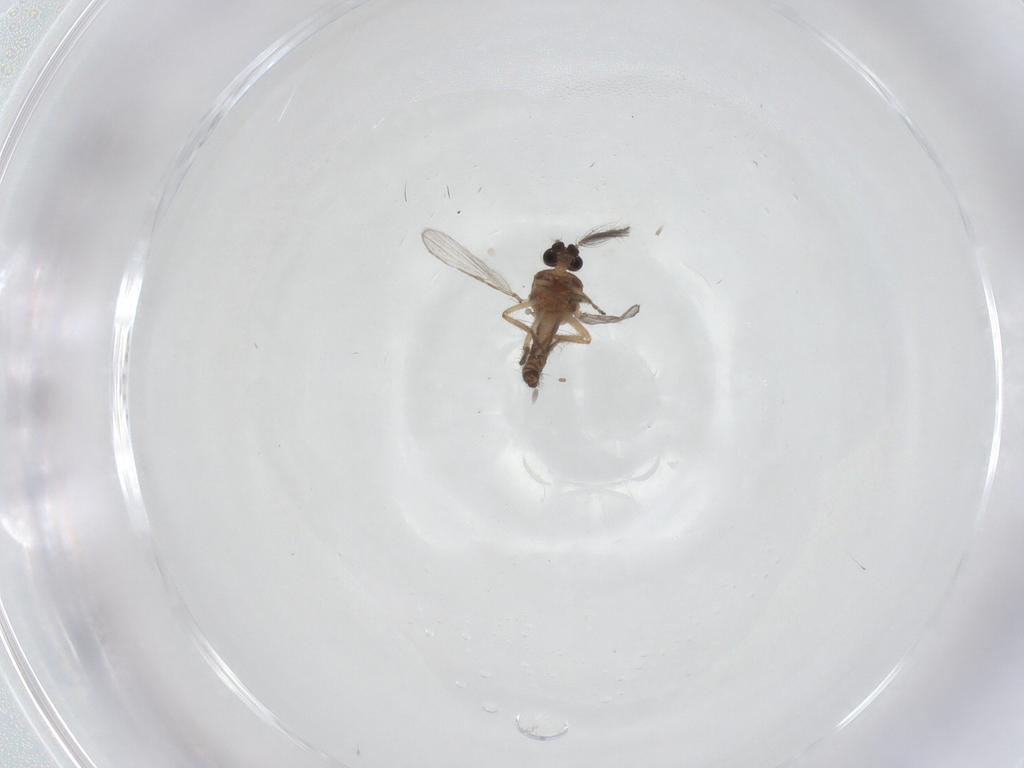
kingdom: Animalia
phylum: Arthropoda
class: Insecta
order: Diptera
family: Ceratopogonidae
